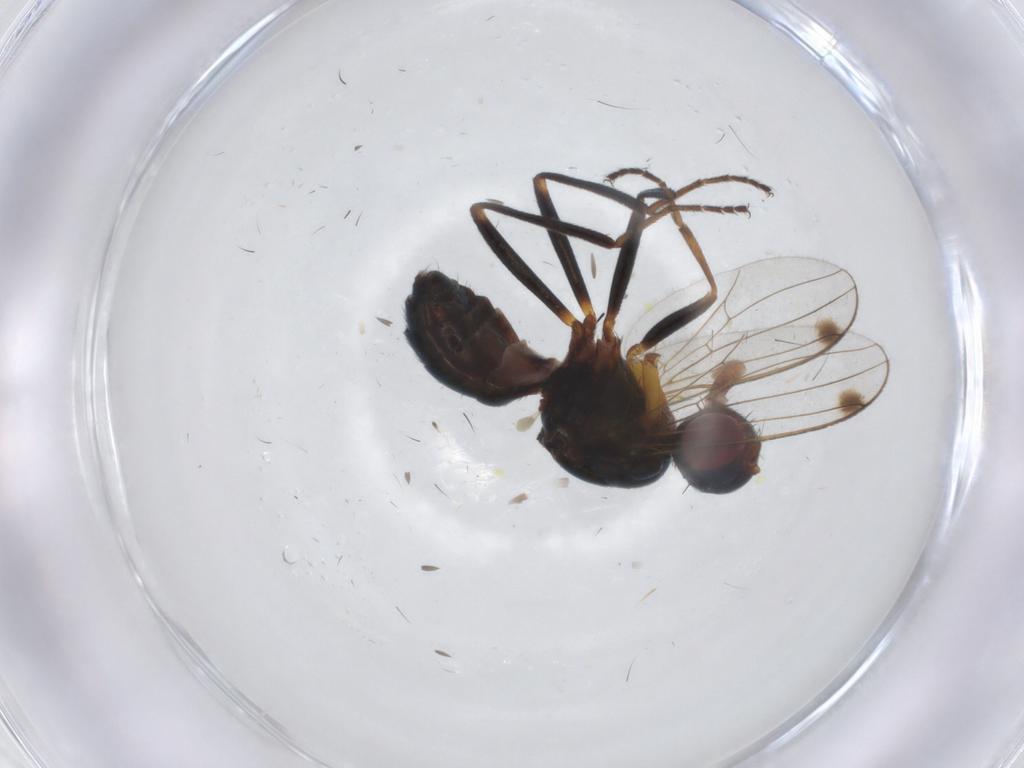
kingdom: Animalia
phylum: Arthropoda
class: Insecta
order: Diptera
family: Sepsidae
